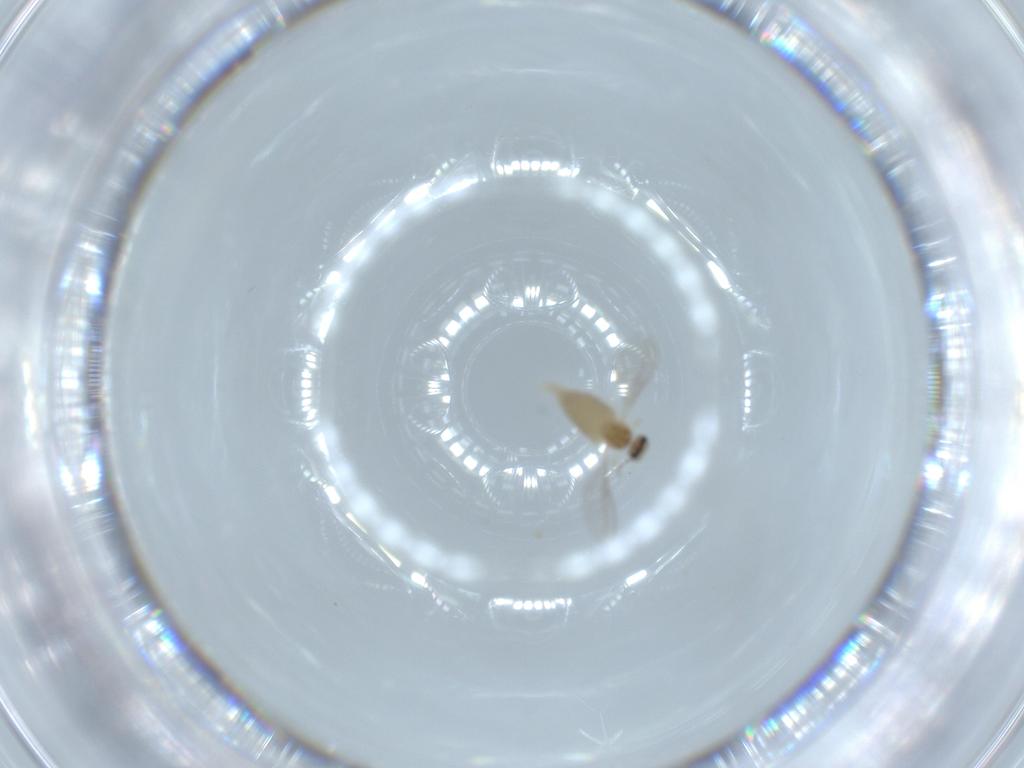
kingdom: Animalia
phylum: Arthropoda
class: Insecta
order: Diptera
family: Cecidomyiidae
